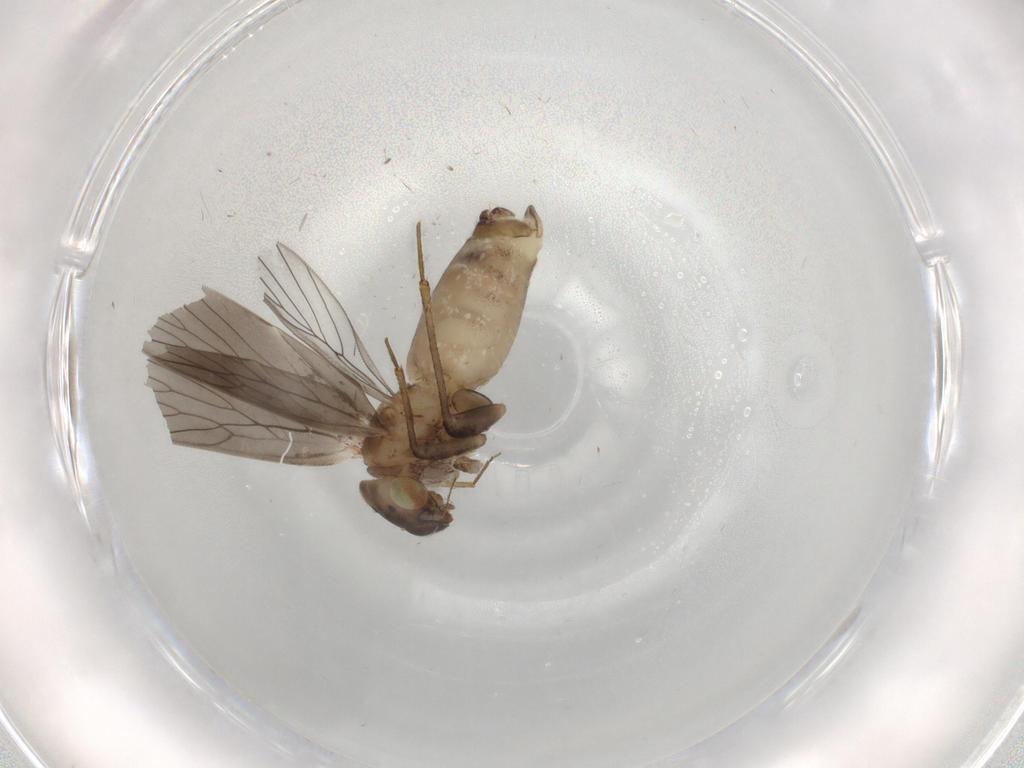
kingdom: Animalia
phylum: Arthropoda
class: Insecta
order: Psocodea
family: Lepidopsocidae
